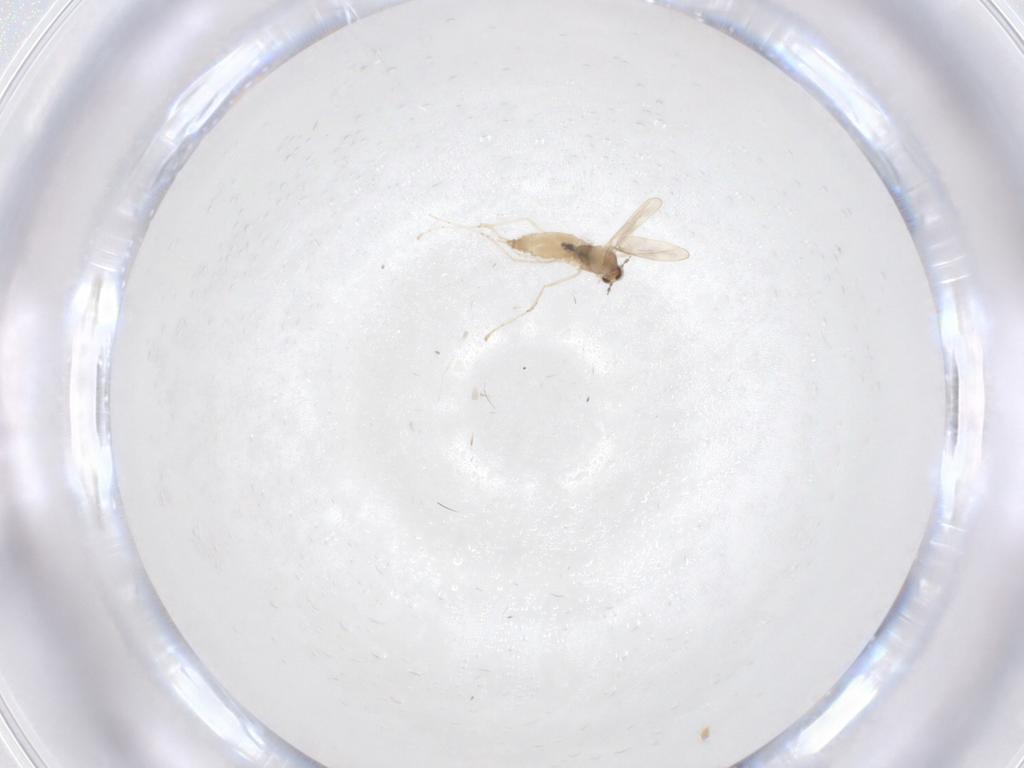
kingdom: Animalia
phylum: Arthropoda
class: Insecta
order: Diptera
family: Cecidomyiidae
